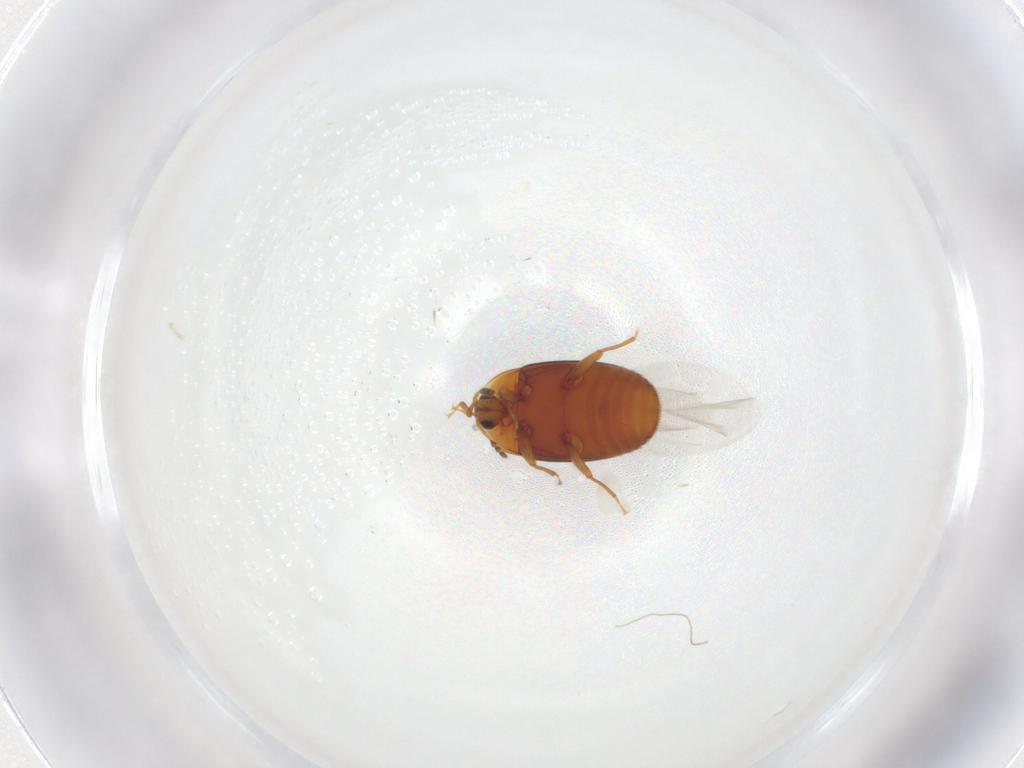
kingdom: Animalia
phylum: Arthropoda
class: Insecta
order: Coleoptera
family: Corylophidae
